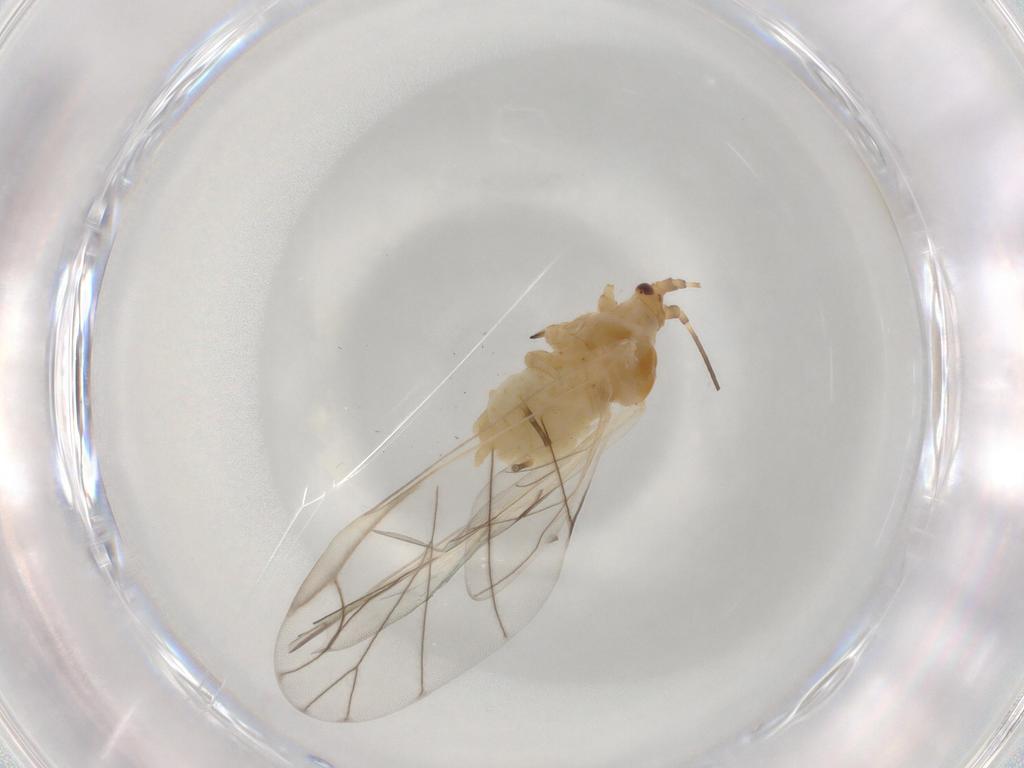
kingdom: Animalia
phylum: Arthropoda
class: Insecta
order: Hemiptera
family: Aphididae
